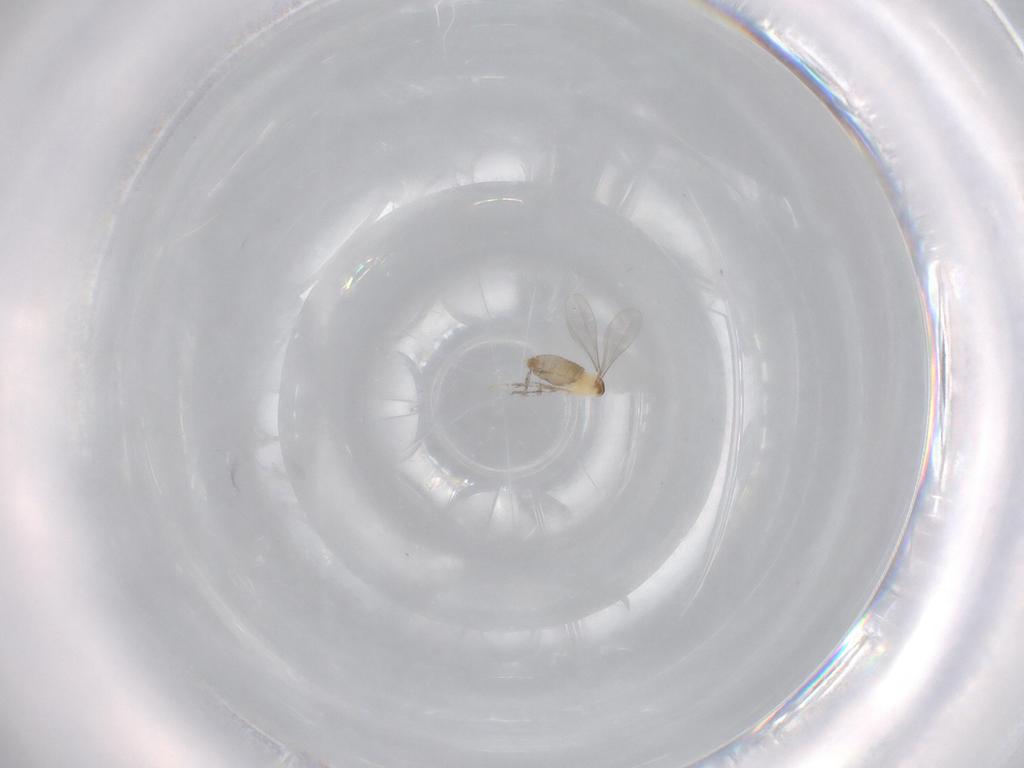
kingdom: Animalia
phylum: Arthropoda
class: Insecta
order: Diptera
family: Cecidomyiidae
